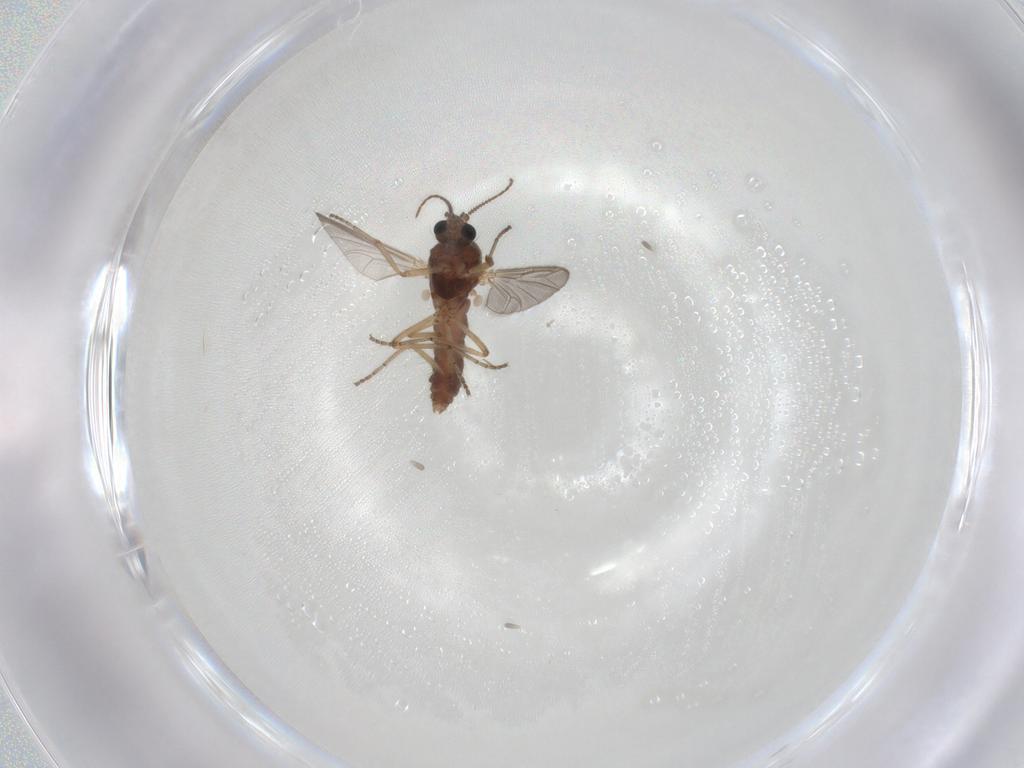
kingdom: Animalia
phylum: Arthropoda
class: Insecta
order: Diptera
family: Ceratopogonidae
